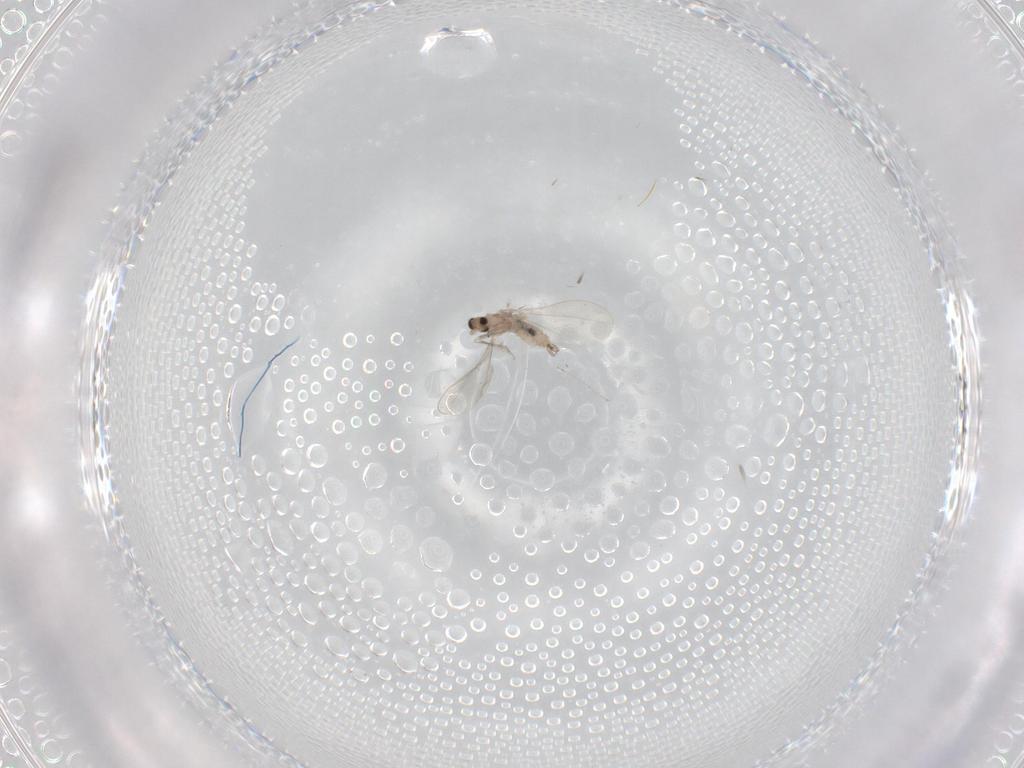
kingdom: Animalia
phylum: Arthropoda
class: Insecta
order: Diptera
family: Cecidomyiidae
